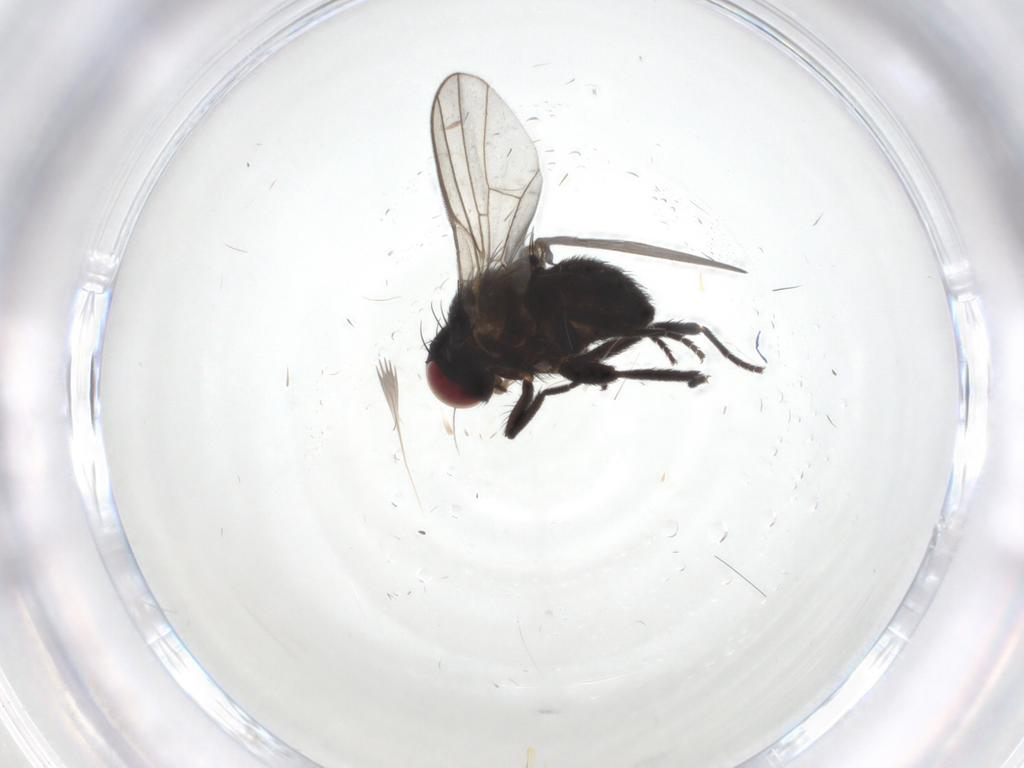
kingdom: Animalia
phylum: Arthropoda
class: Insecta
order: Diptera
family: Agromyzidae
